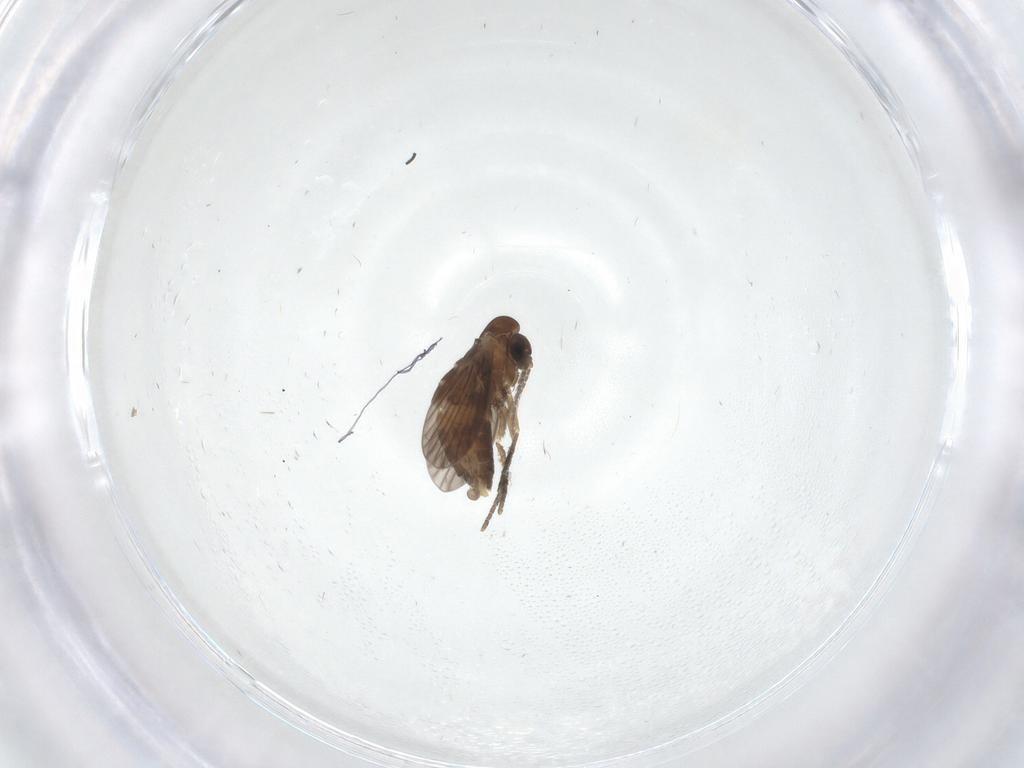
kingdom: Animalia
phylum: Arthropoda
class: Insecta
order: Diptera
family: Cecidomyiidae
